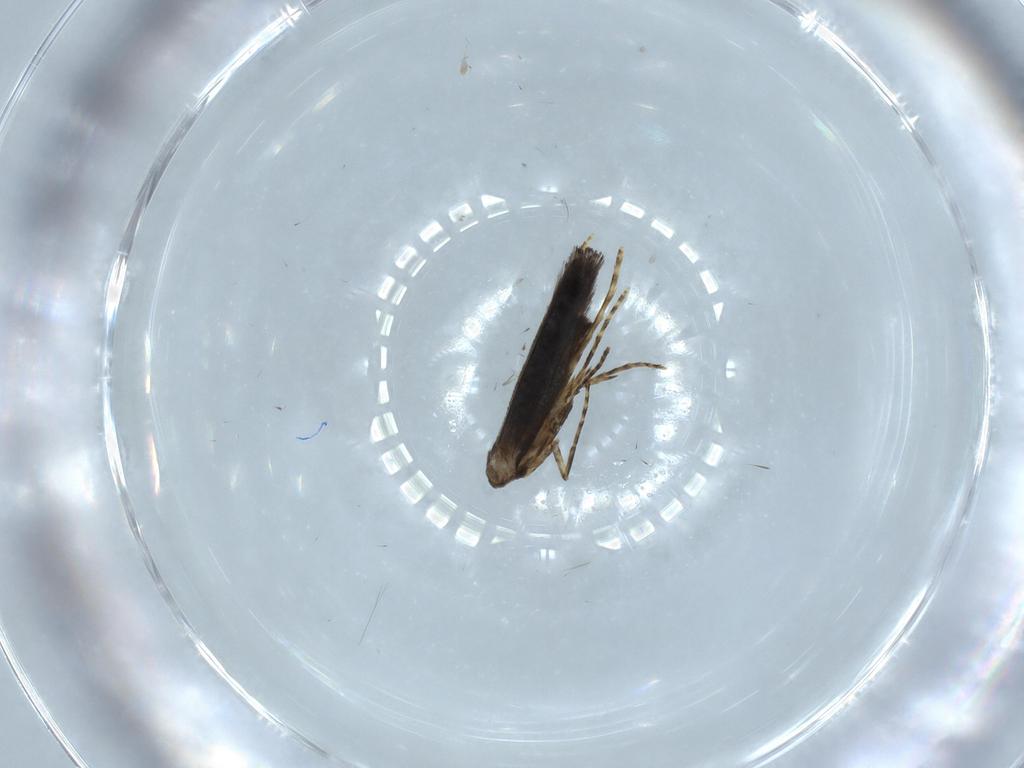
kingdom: Animalia
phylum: Arthropoda
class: Insecta
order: Lepidoptera
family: Gracillariidae
